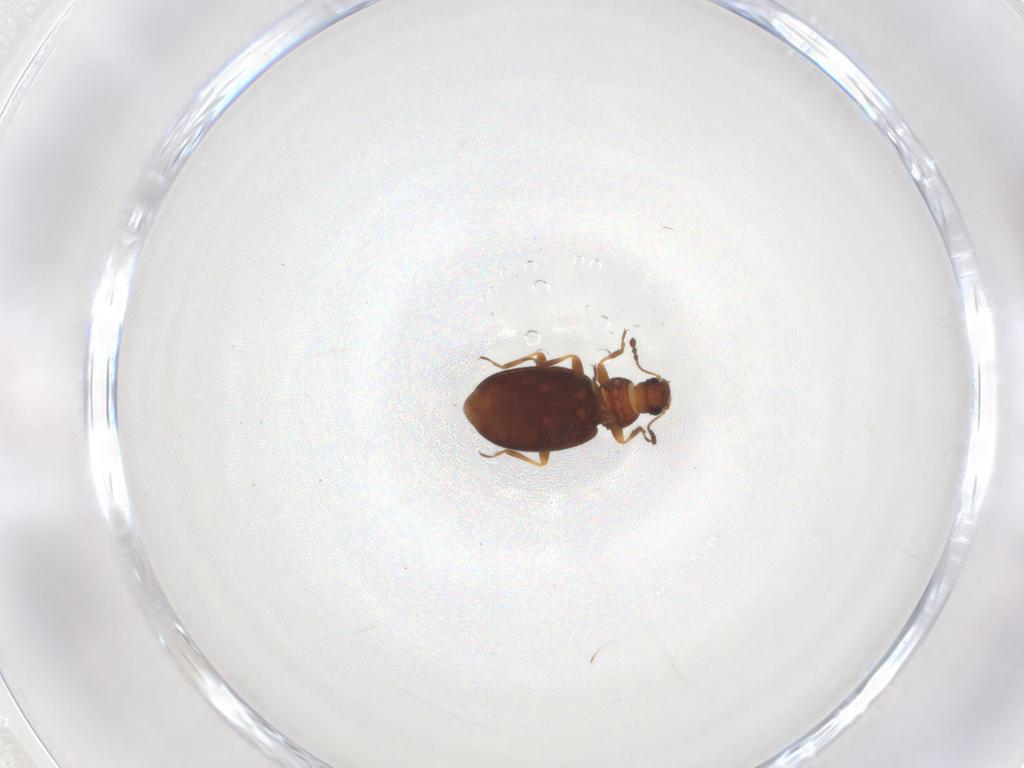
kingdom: Animalia
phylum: Arthropoda
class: Insecta
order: Coleoptera
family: Latridiidae
